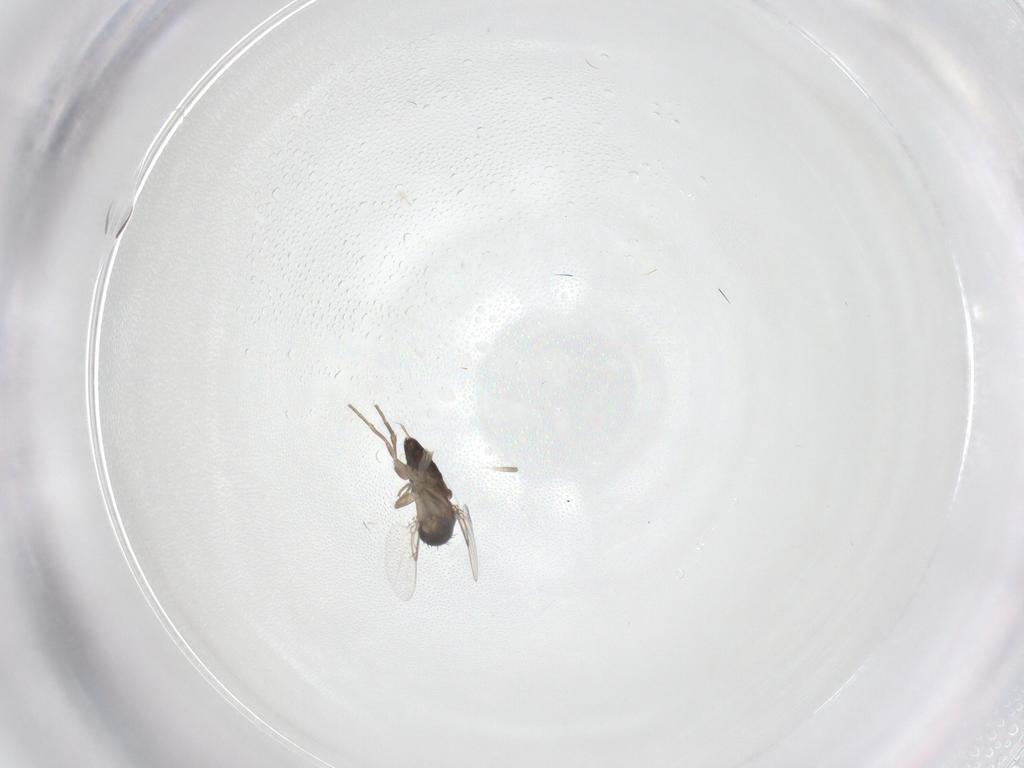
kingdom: Animalia
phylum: Arthropoda
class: Insecta
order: Diptera
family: Phoridae
